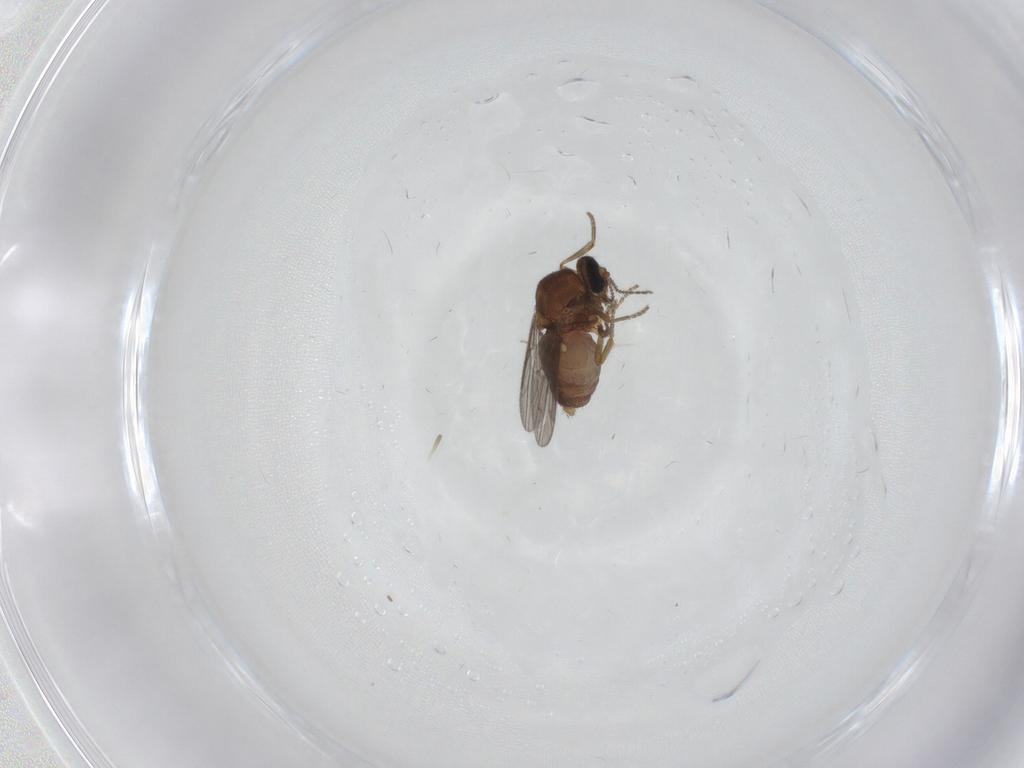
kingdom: Animalia
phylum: Arthropoda
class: Insecta
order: Diptera
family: Ceratopogonidae
